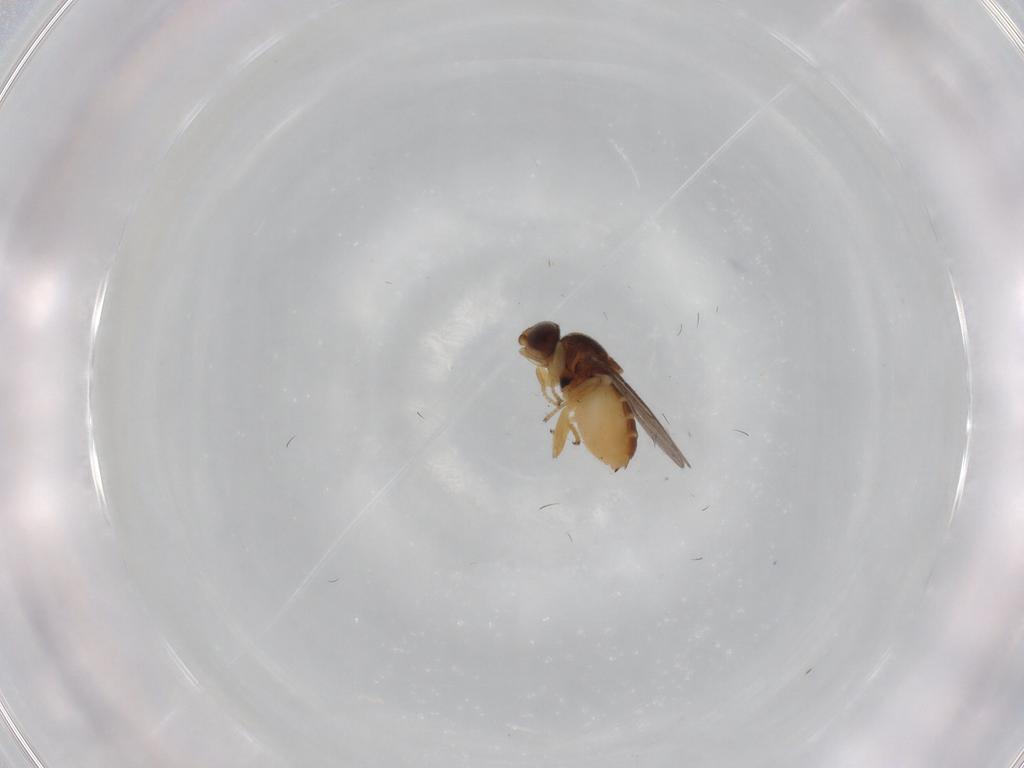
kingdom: Animalia
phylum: Arthropoda
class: Insecta
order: Diptera
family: Chloropidae
